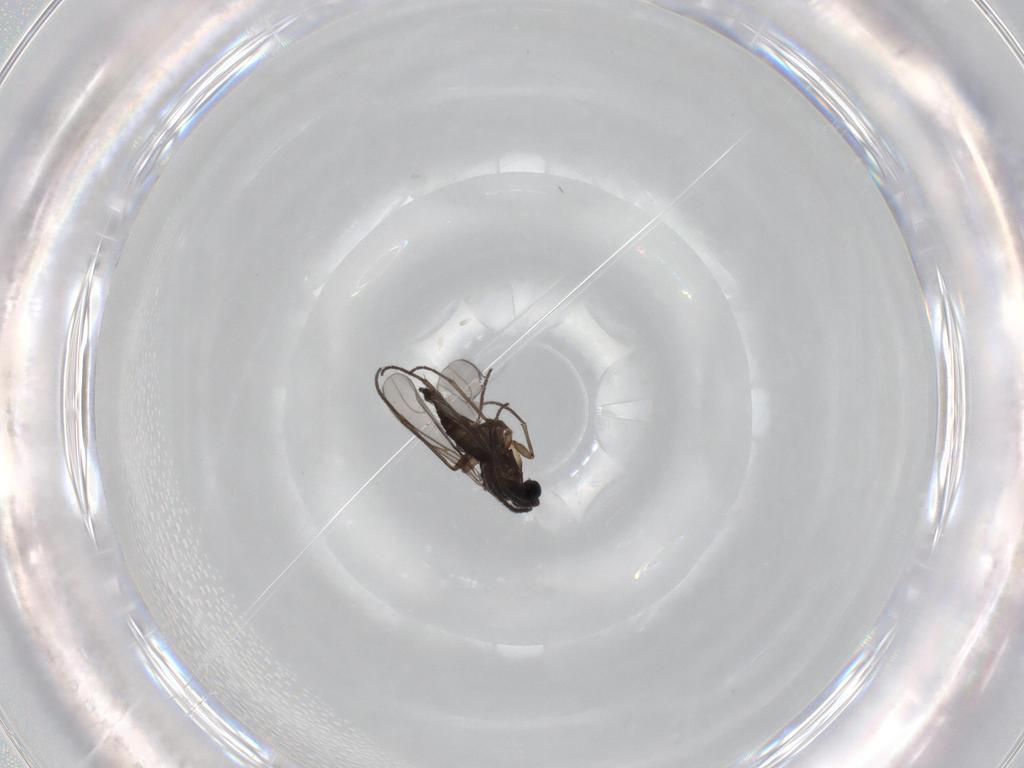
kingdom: Animalia
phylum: Arthropoda
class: Insecta
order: Diptera
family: Sciaridae
